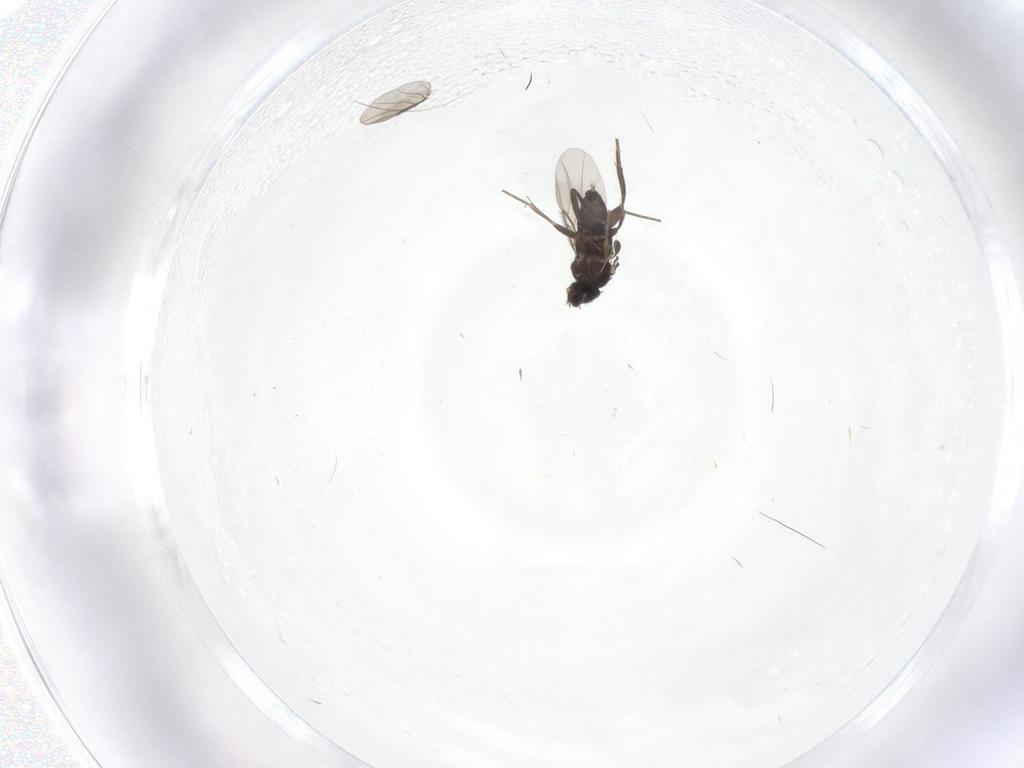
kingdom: Animalia
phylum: Arthropoda
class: Insecta
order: Diptera
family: Phoridae
